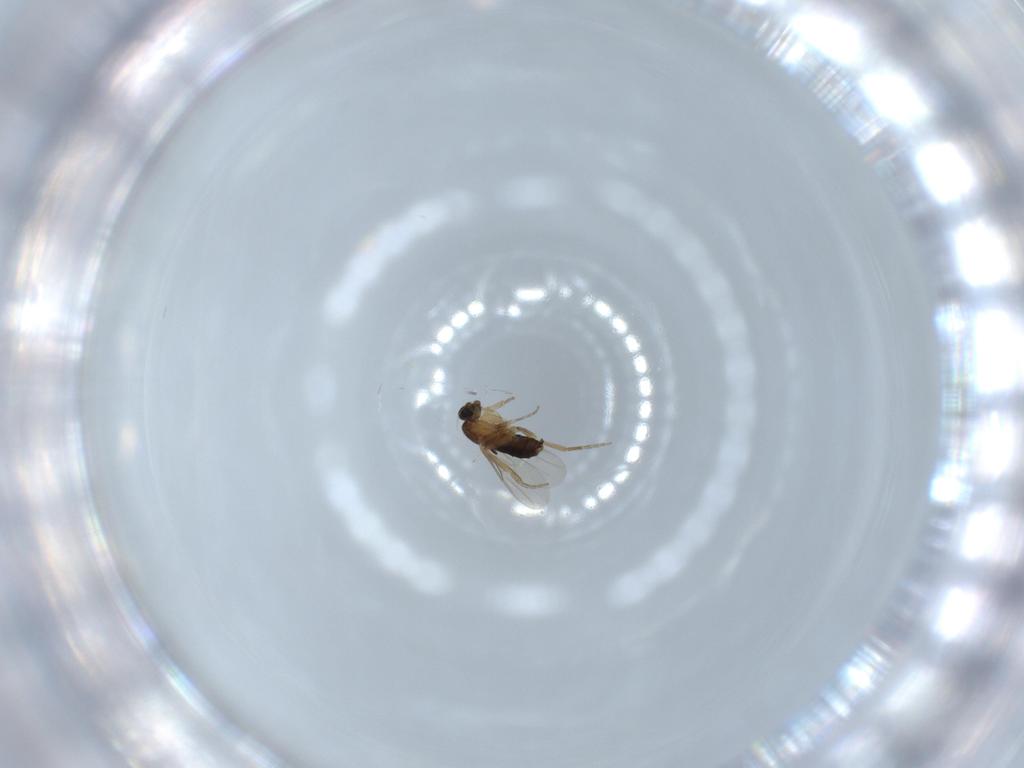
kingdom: Animalia
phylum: Arthropoda
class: Insecta
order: Diptera
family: Phoridae
